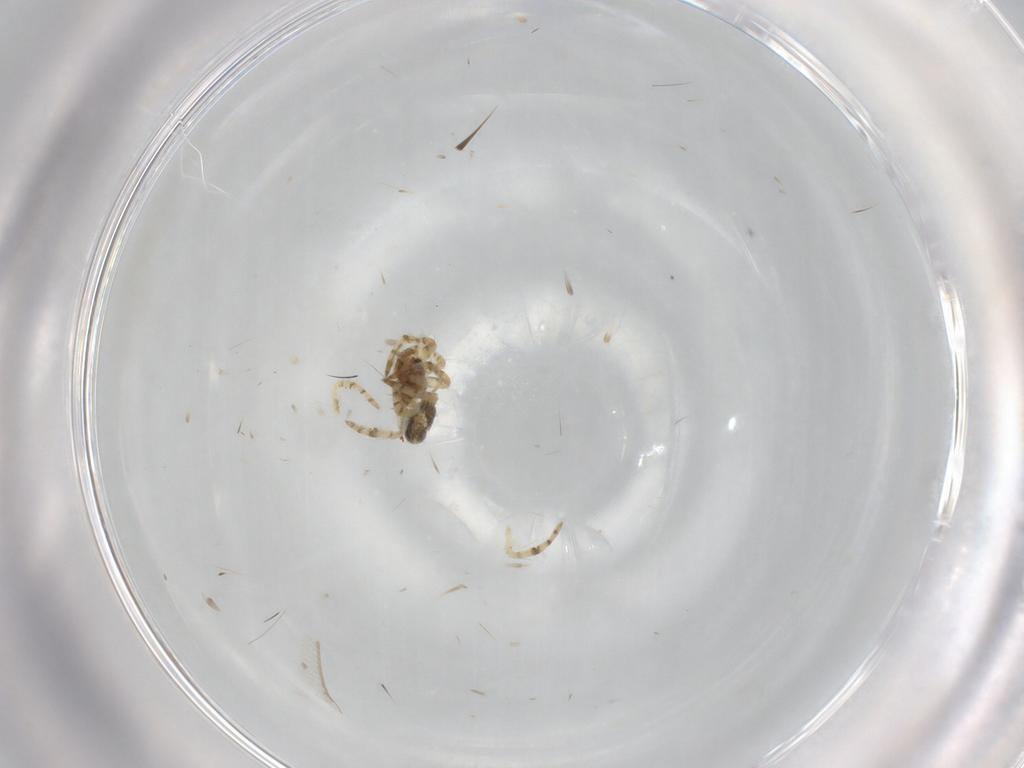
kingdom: Animalia
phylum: Arthropoda
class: Arachnida
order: Araneae
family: Theridiidae
